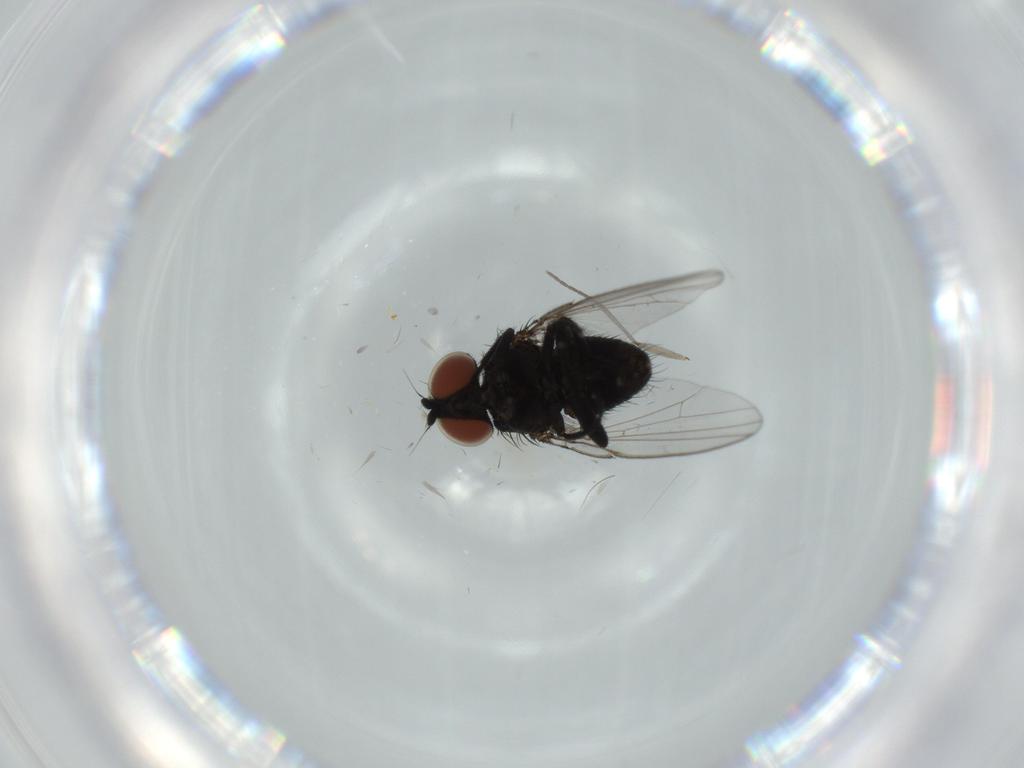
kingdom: Animalia
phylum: Arthropoda
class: Insecta
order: Diptera
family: Milichiidae
